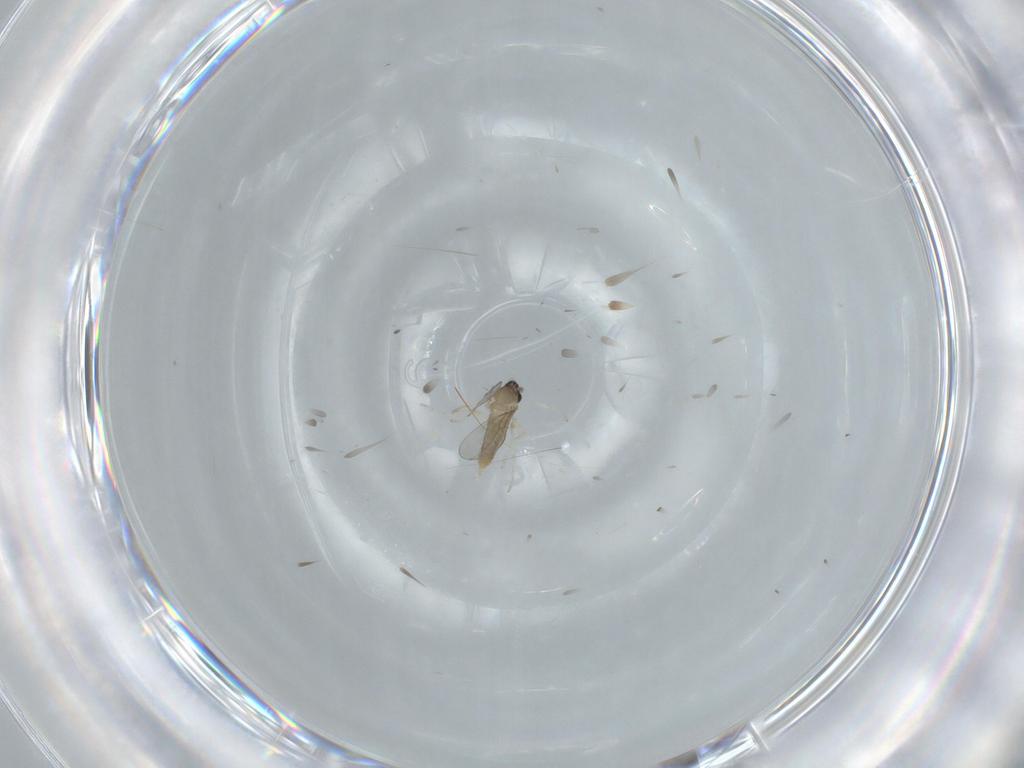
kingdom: Animalia
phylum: Arthropoda
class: Insecta
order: Diptera
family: Cecidomyiidae
